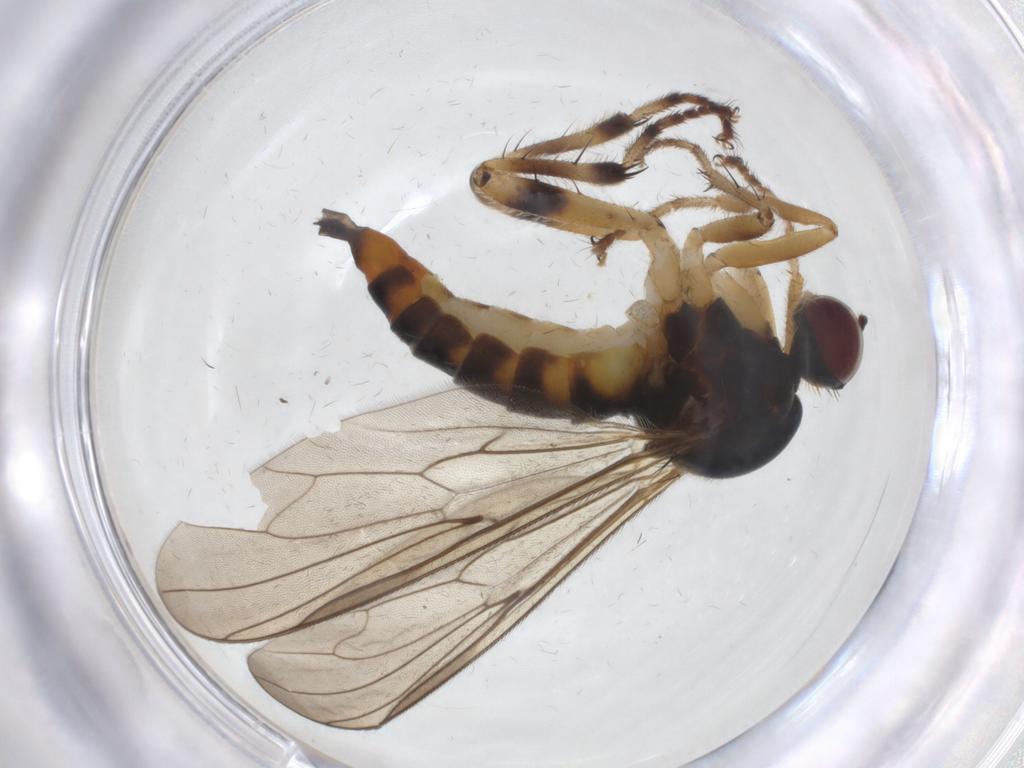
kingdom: Animalia
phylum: Arthropoda
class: Insecta
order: Diptera
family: Hybotidae
